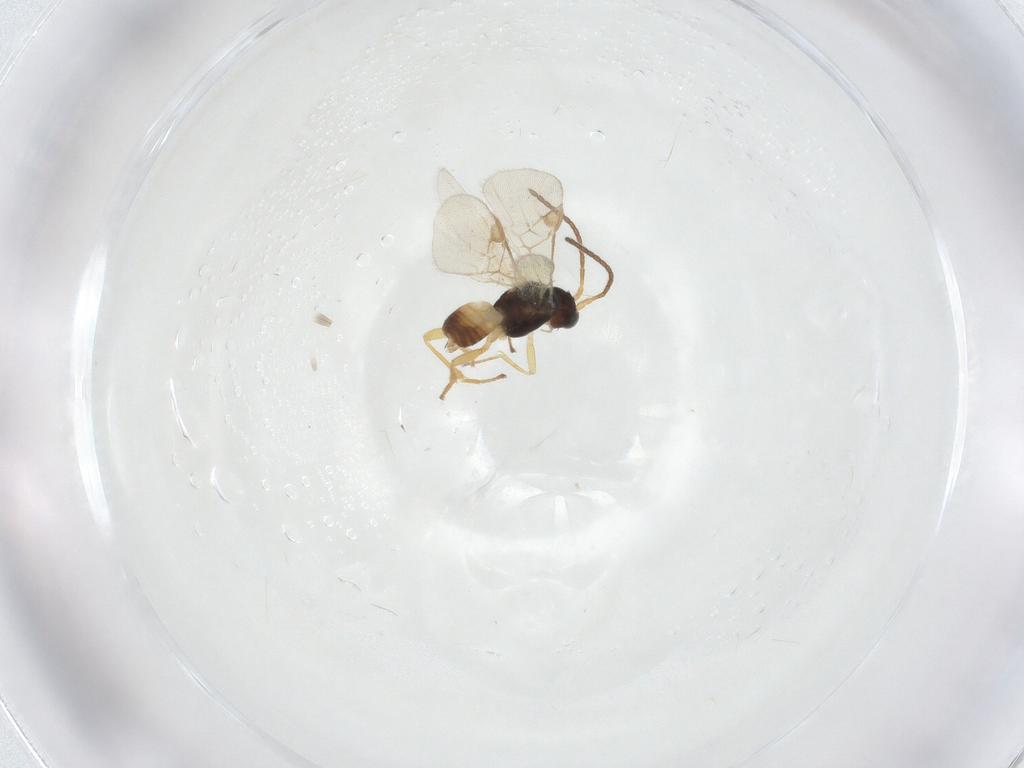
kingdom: Animalia
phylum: Arthropoda
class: Insecta
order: Hymenoptera
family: Braconidae
